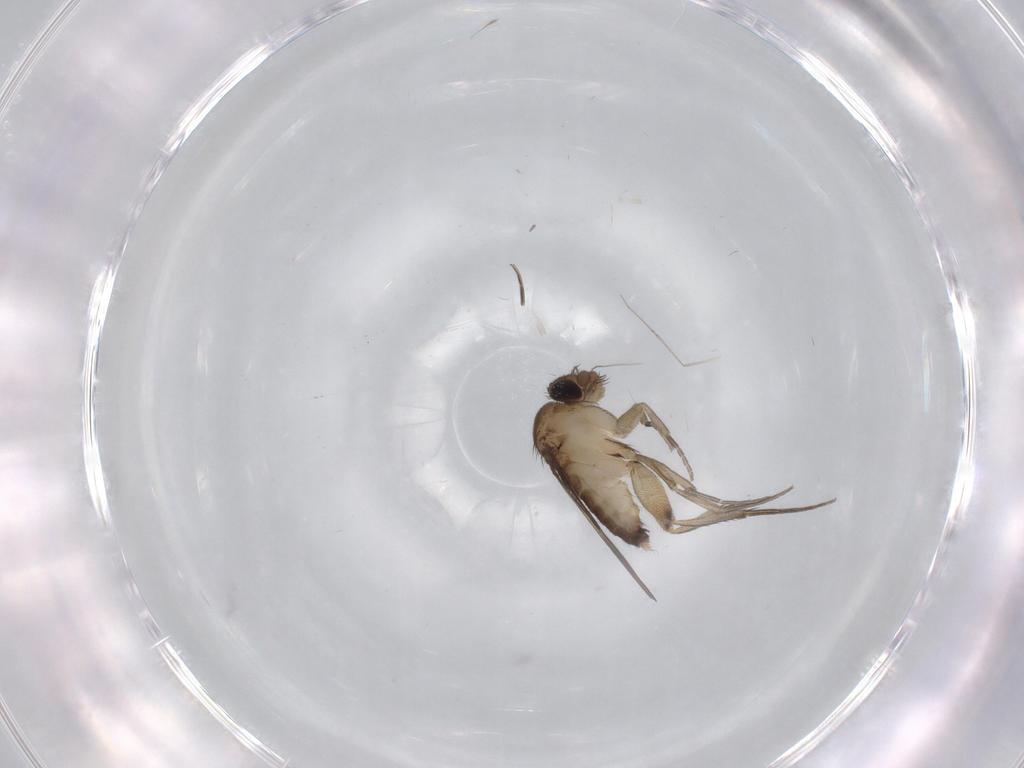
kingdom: Animalia
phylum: Arthropoda
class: Insecta
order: Diptera
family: Phoridae
